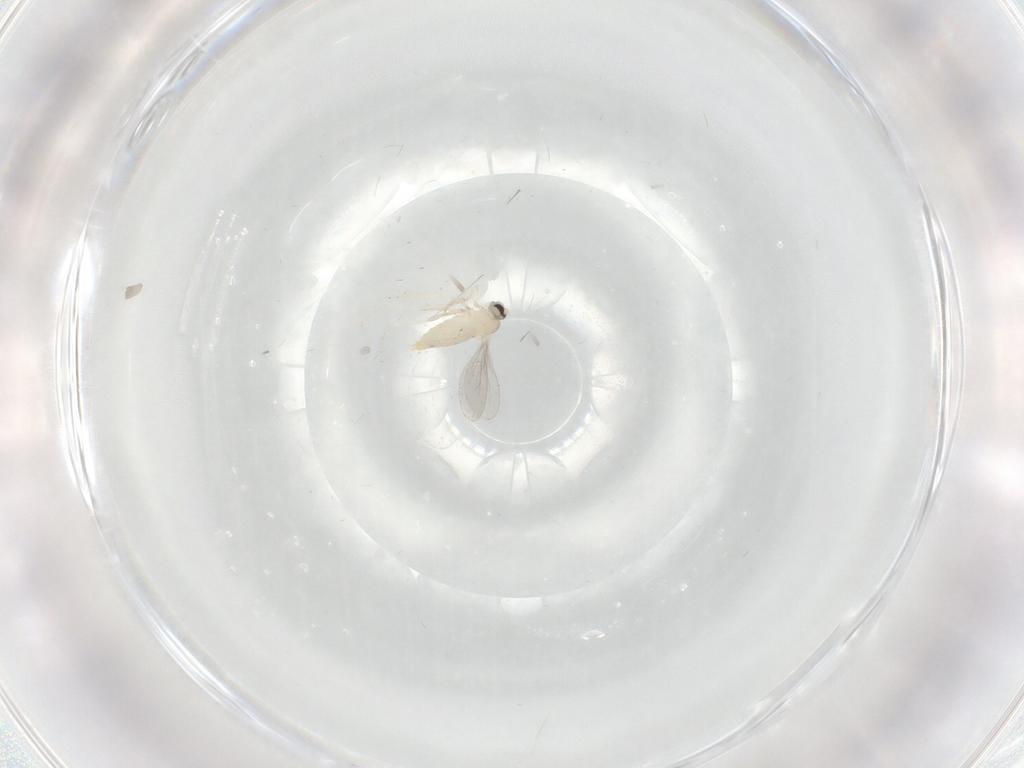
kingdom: Animalia
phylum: Arthropoda
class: Insecta
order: Diptera
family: Cecidomyiidae
